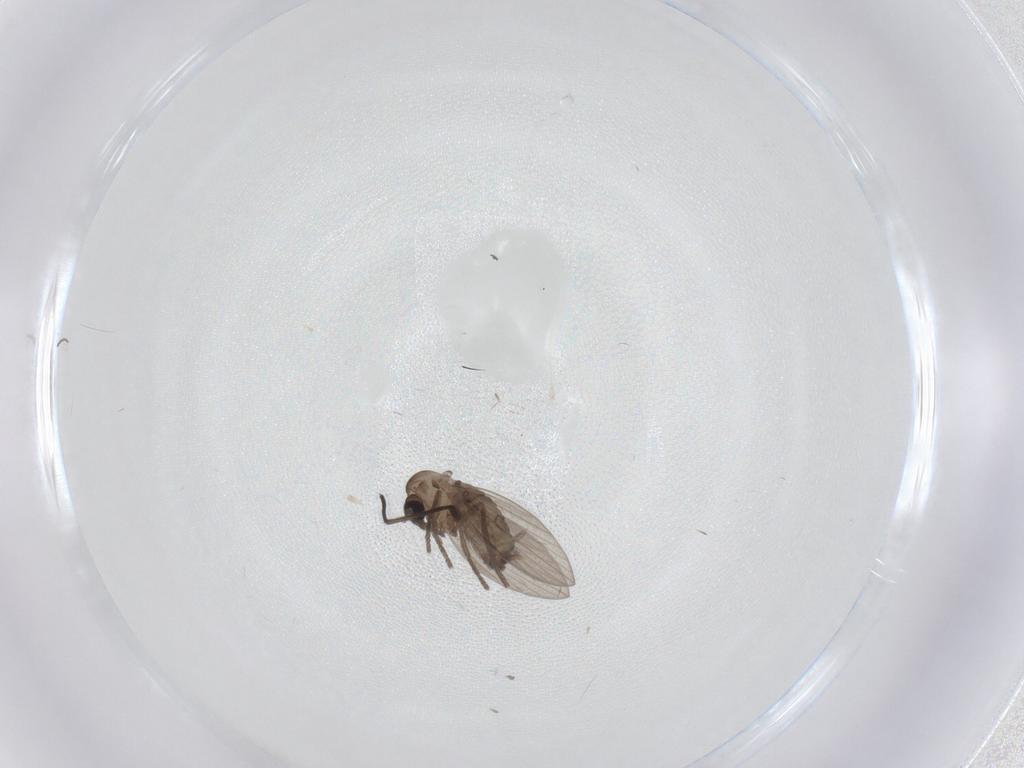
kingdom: Animalia
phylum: Arthropoda
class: Insecta
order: Diptera
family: Psychodidae
